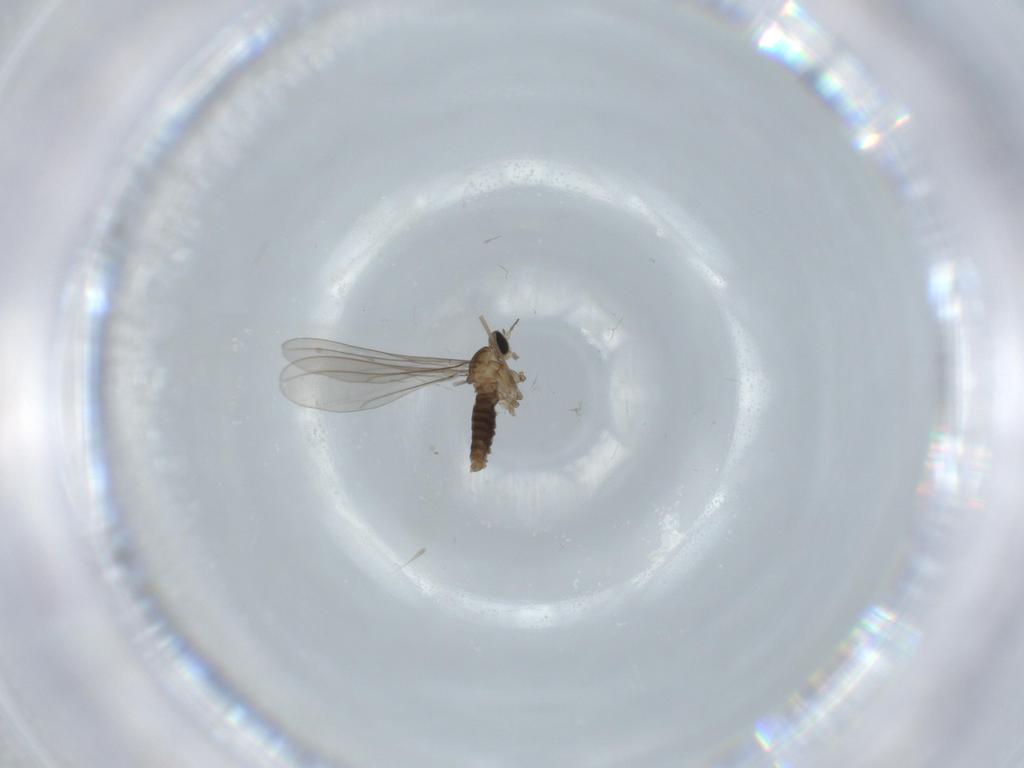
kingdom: Animalia
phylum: Arthropoda
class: Insecta
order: Diptera
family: Cecidomyiidae
